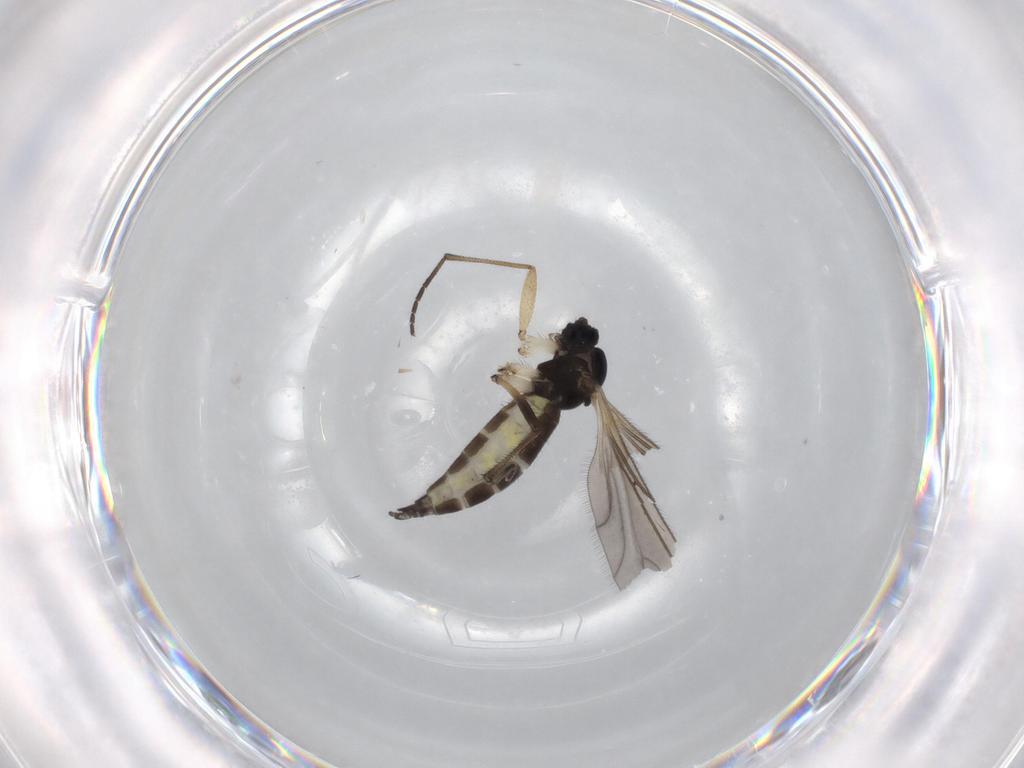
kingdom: Animalia
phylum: Arthropoda
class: Insecta
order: Diptera
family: Sciaridae
